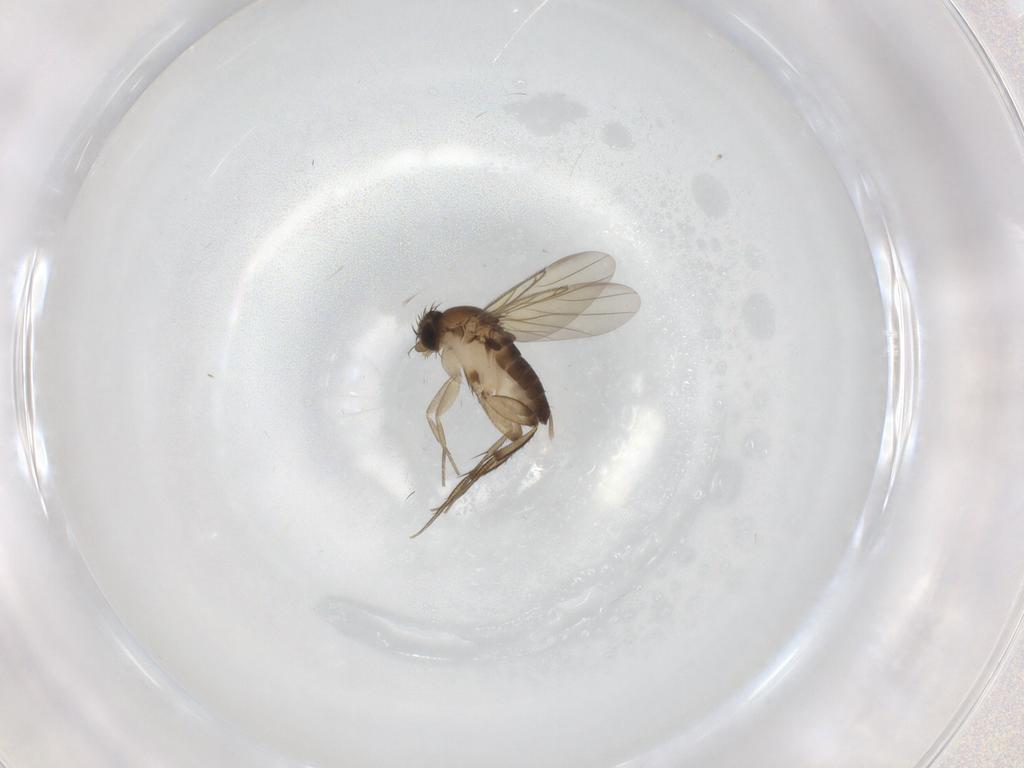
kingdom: Animalia
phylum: Arthropoda
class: Insecta
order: Diptera
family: Phoridae
